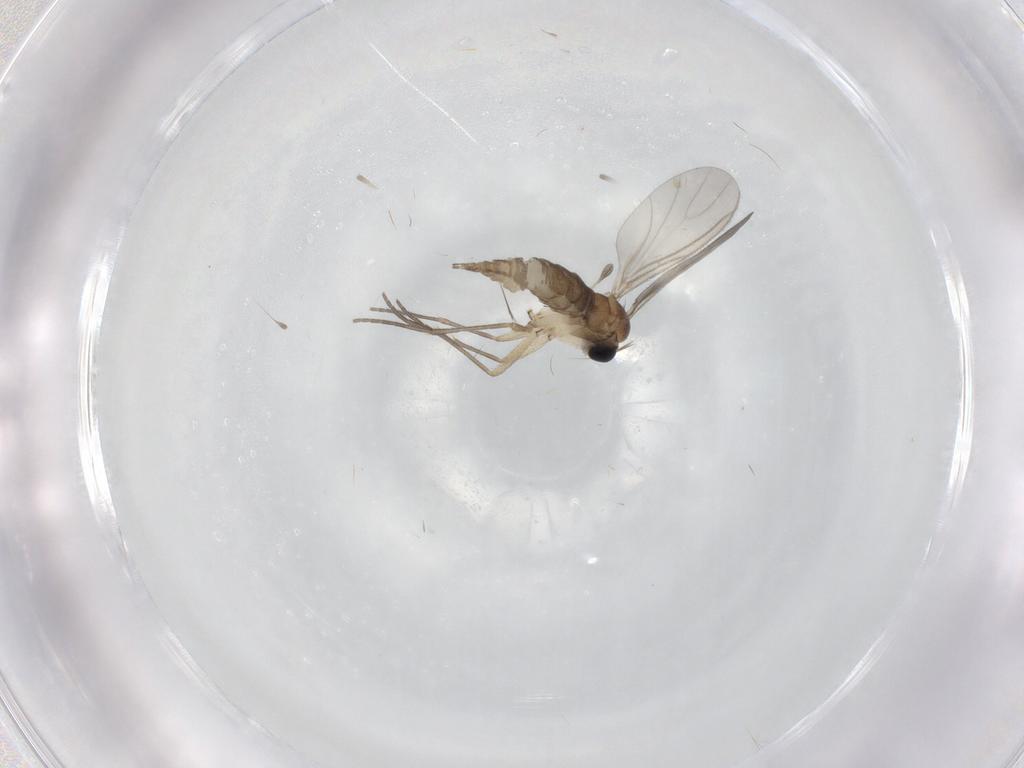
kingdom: Animalia
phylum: Arthropoda
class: Insecta
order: Diptera
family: Sciaridae
